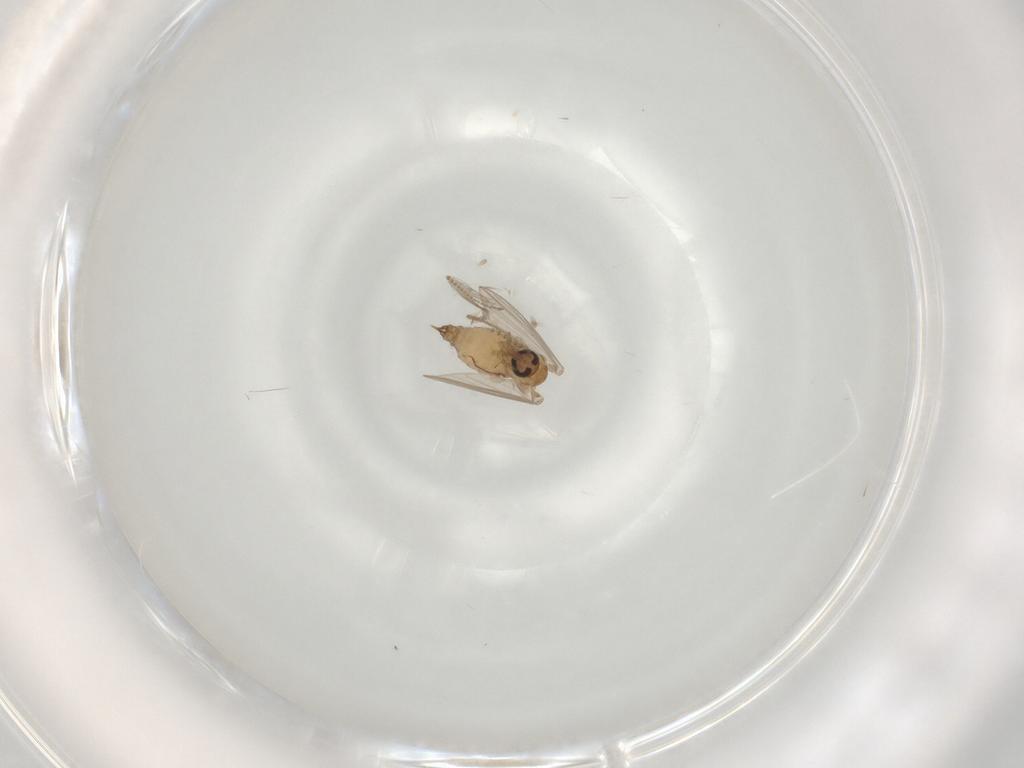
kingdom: Animalia
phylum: Arthropoda
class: Insecta
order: Diptera
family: Psychodidae
